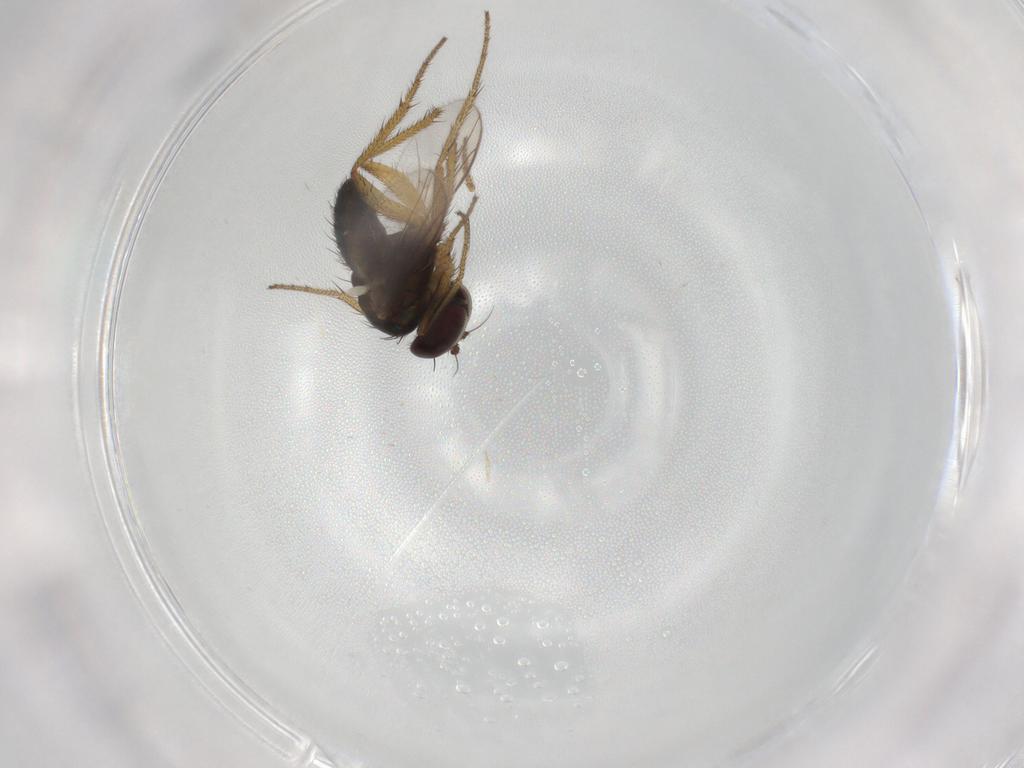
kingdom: Animalia
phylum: Arthropoda
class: Insecta
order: Diptera
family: Dolichopodidae
